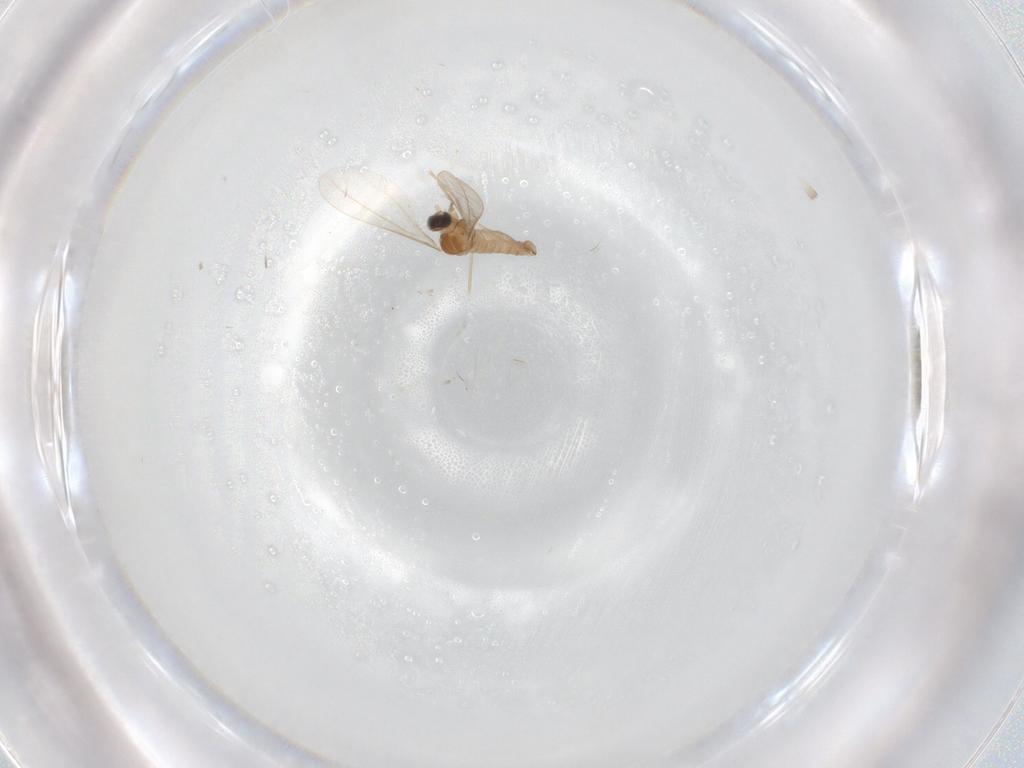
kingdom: Animalia
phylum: Arthropoda
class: Insecta
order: Diptera
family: Cecidomyiidae
